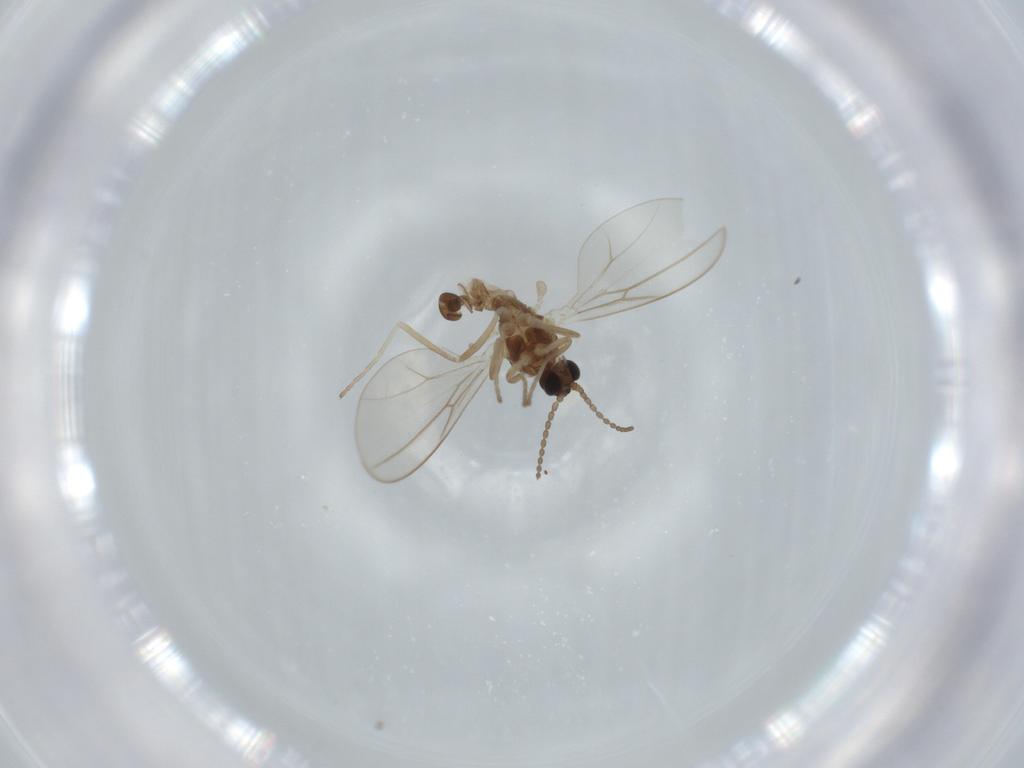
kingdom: Animalia
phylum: Arthropoda
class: Insecta
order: Diptera
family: Cecidomyiidae
